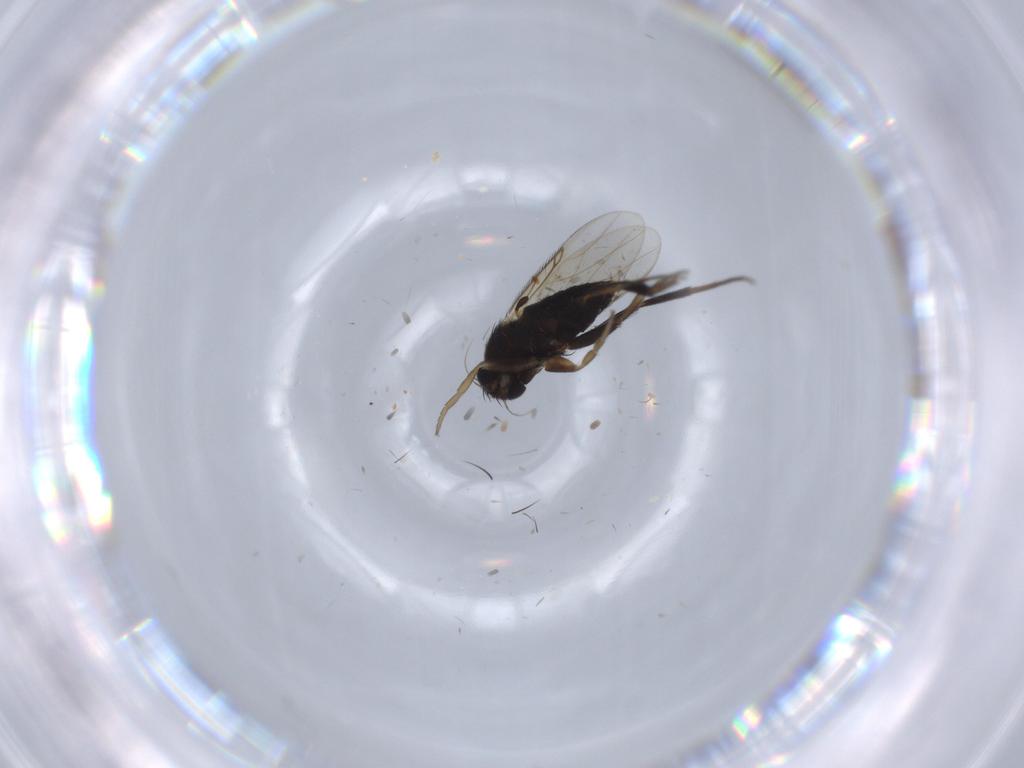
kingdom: Animalia
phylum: Arthropoda
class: Insecta
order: Diptera
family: Phoridae
